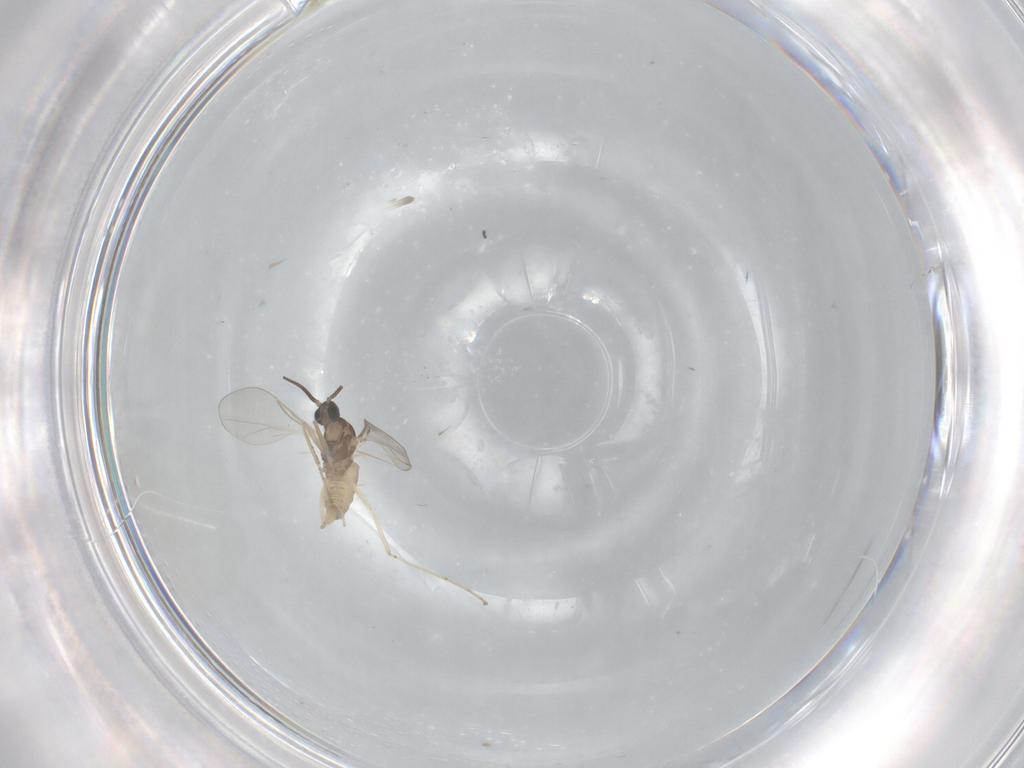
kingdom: Animalia
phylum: Arthropoda
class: Insecta
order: Diptera
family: Cecidomyiidae
